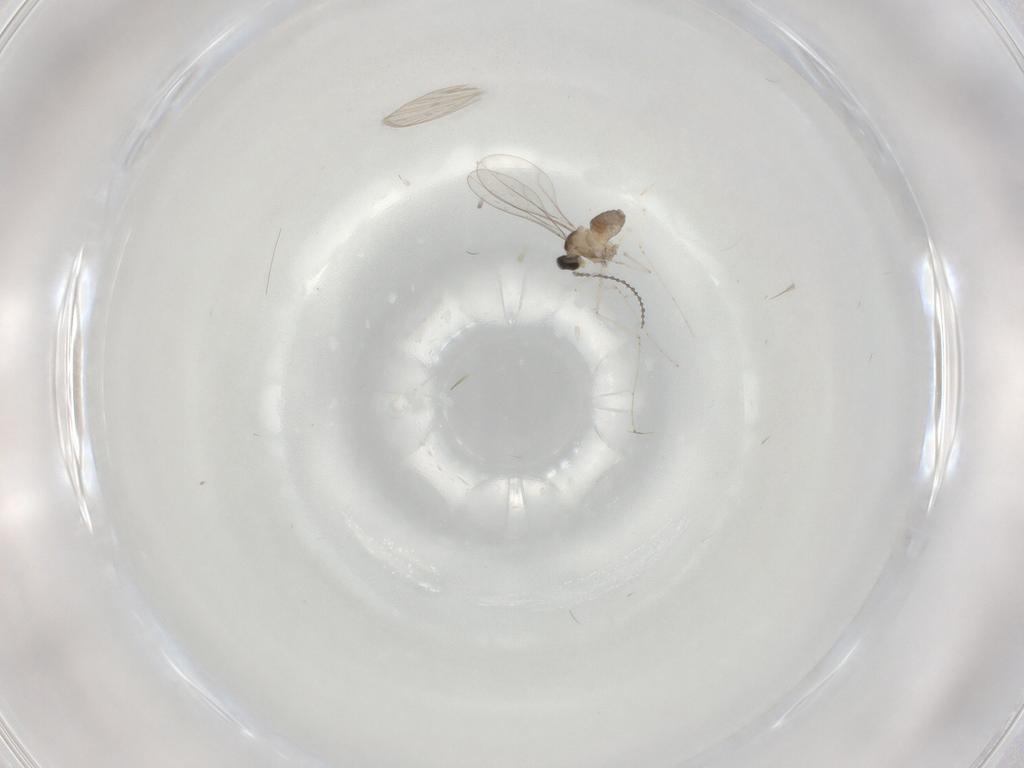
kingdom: Animalia
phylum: Arthropoda
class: Insecta
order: Diptera
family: Cecidomyiidae
